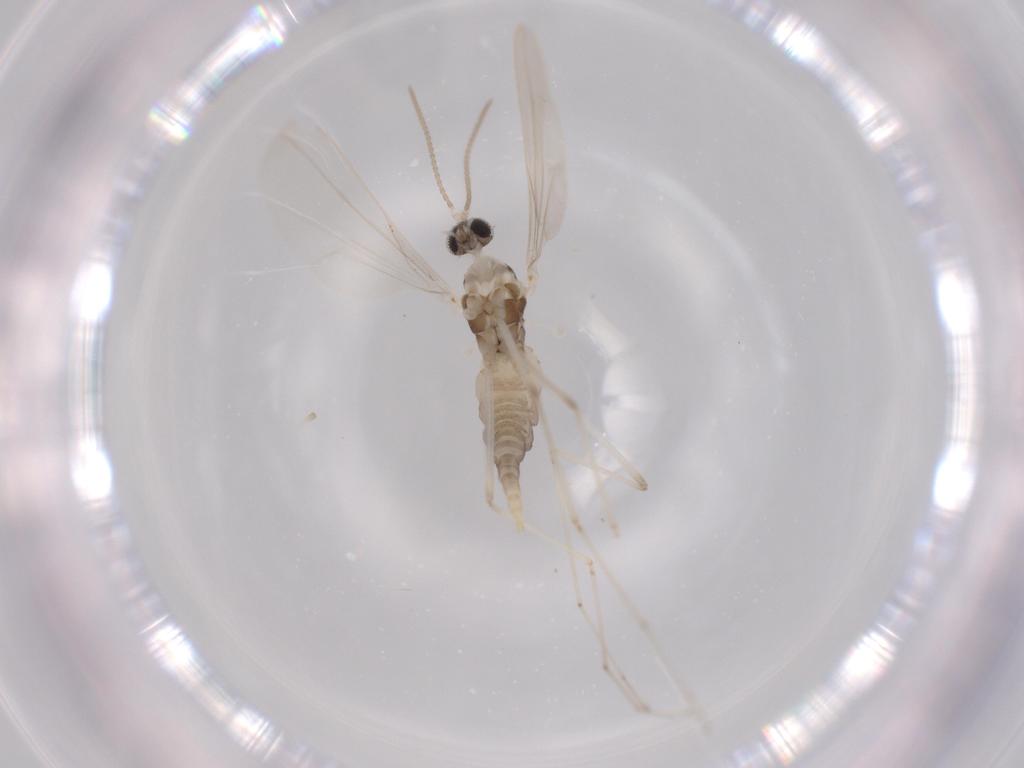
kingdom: Animalia
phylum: Arthropoda
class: Insecta
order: Diptera
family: Cecidomyiidae
